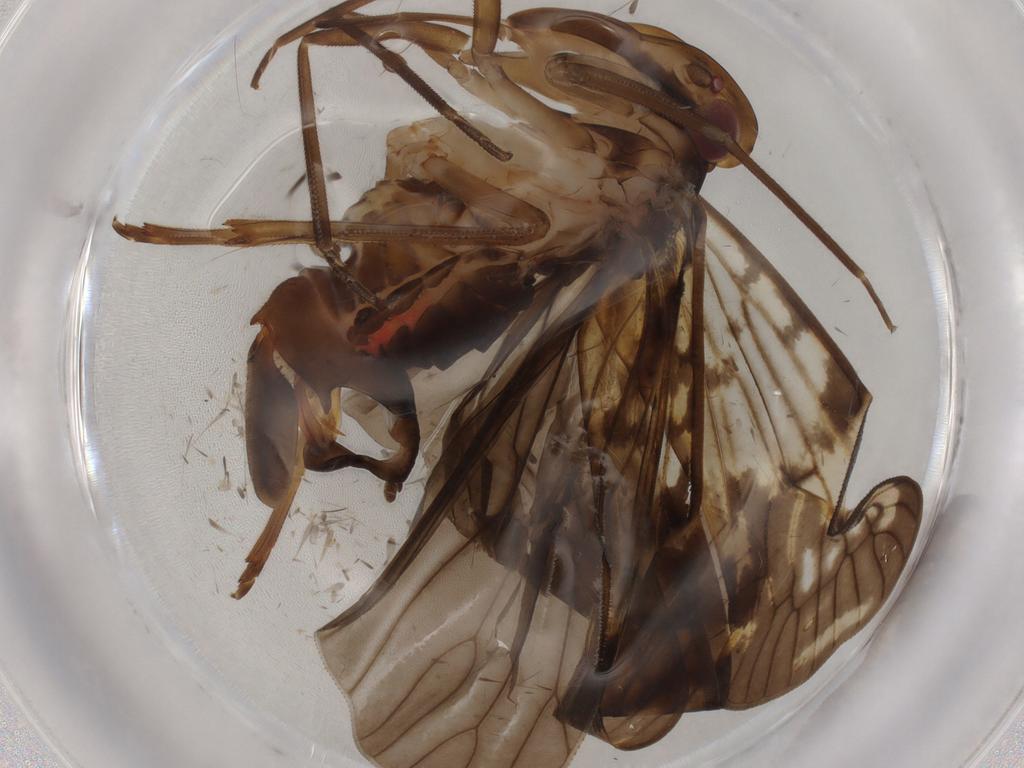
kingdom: Animalia
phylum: Arthropoda
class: Insecta
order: Hemiptera
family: Cixiidae
